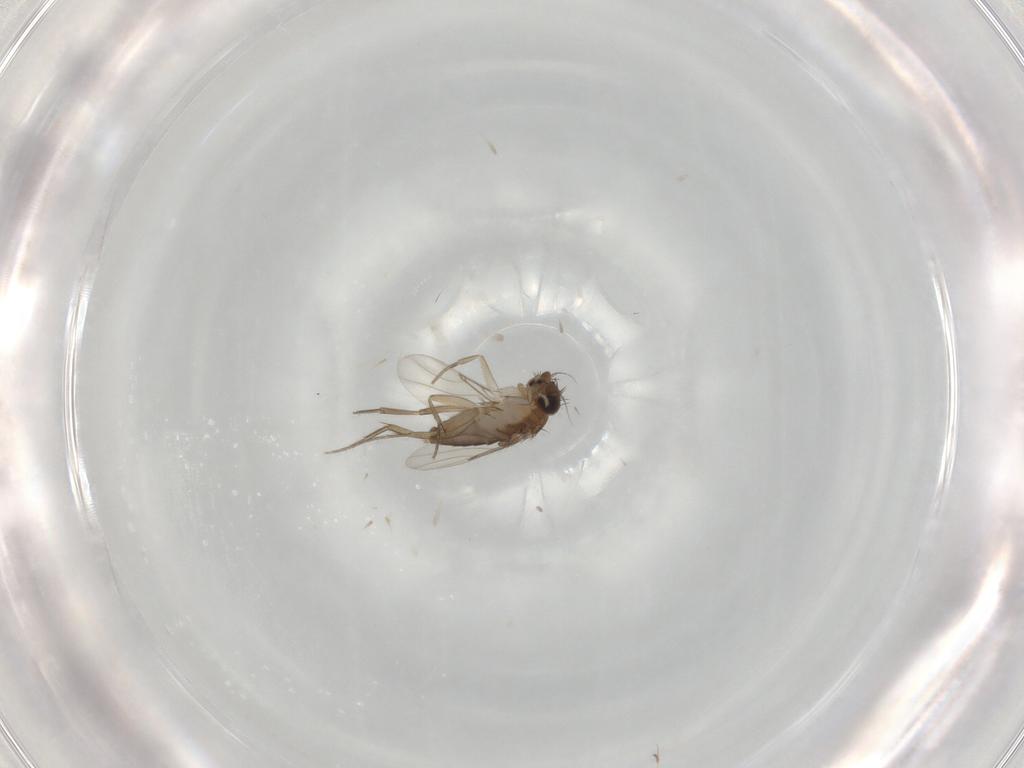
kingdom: Animalia
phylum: Arthropoda
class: Insecta
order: Diptera
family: Phoridae
